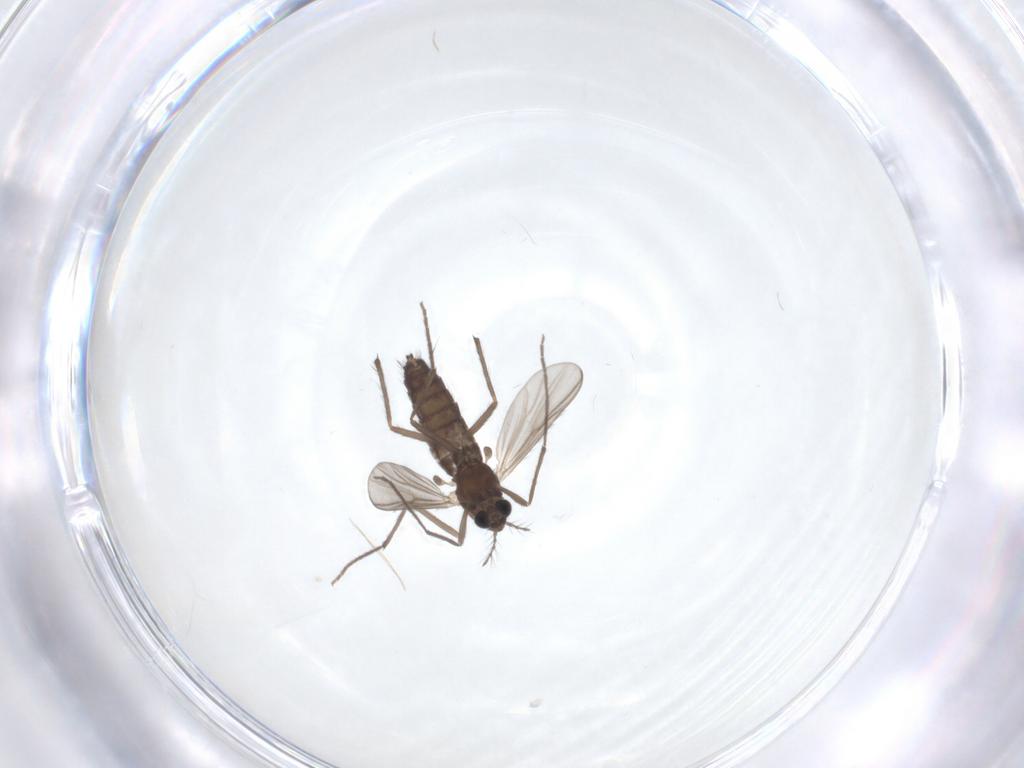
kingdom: Animalia
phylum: Arthropoda
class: Insecta
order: Diptera
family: Chironomidae
